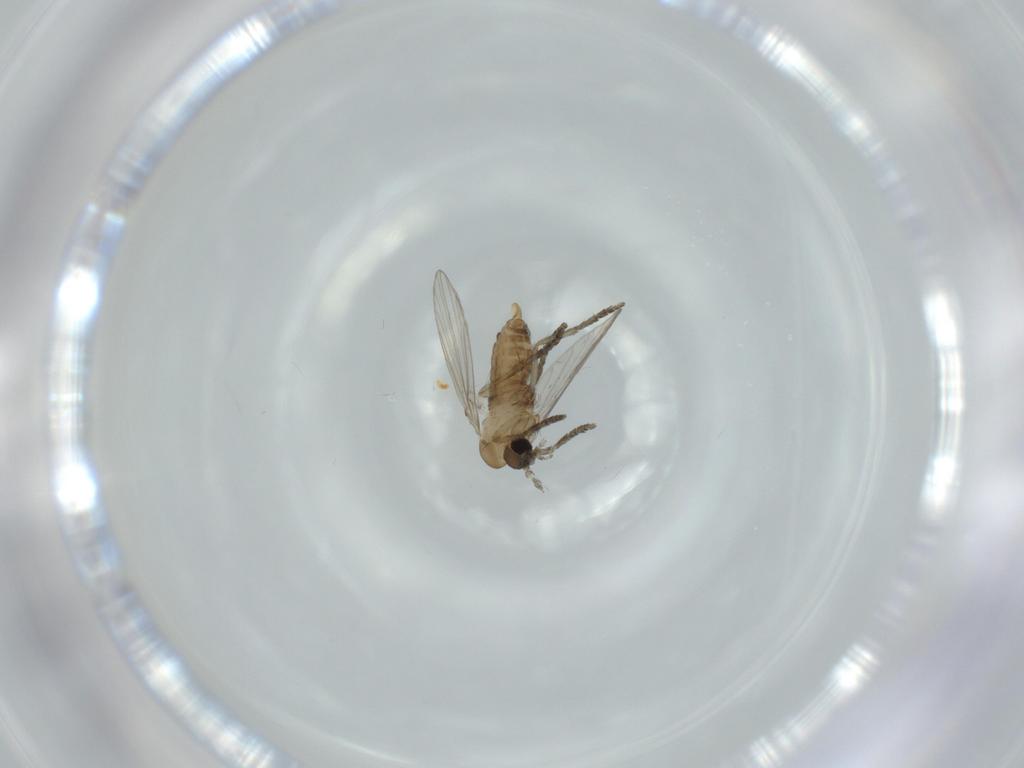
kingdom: Animalia
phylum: Arthropoda
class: Insecta
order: Diptera
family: Psychodidae
